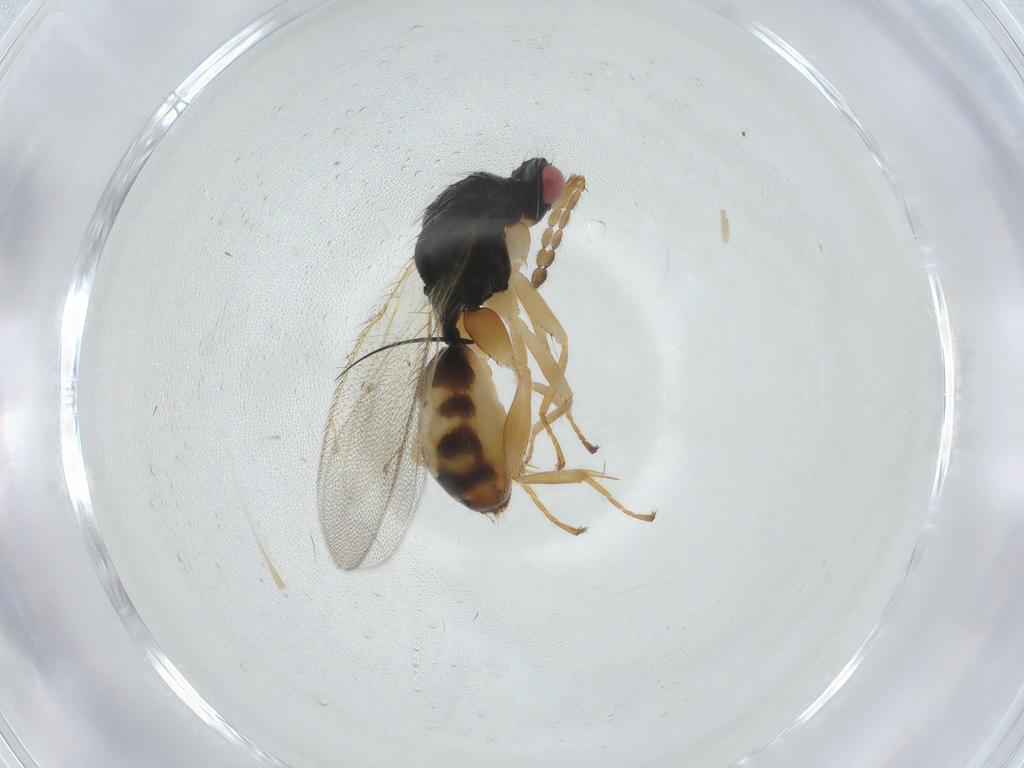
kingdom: Animalia
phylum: Arthropoda
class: Insecta
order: Hymenoptera
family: Eulophidae
